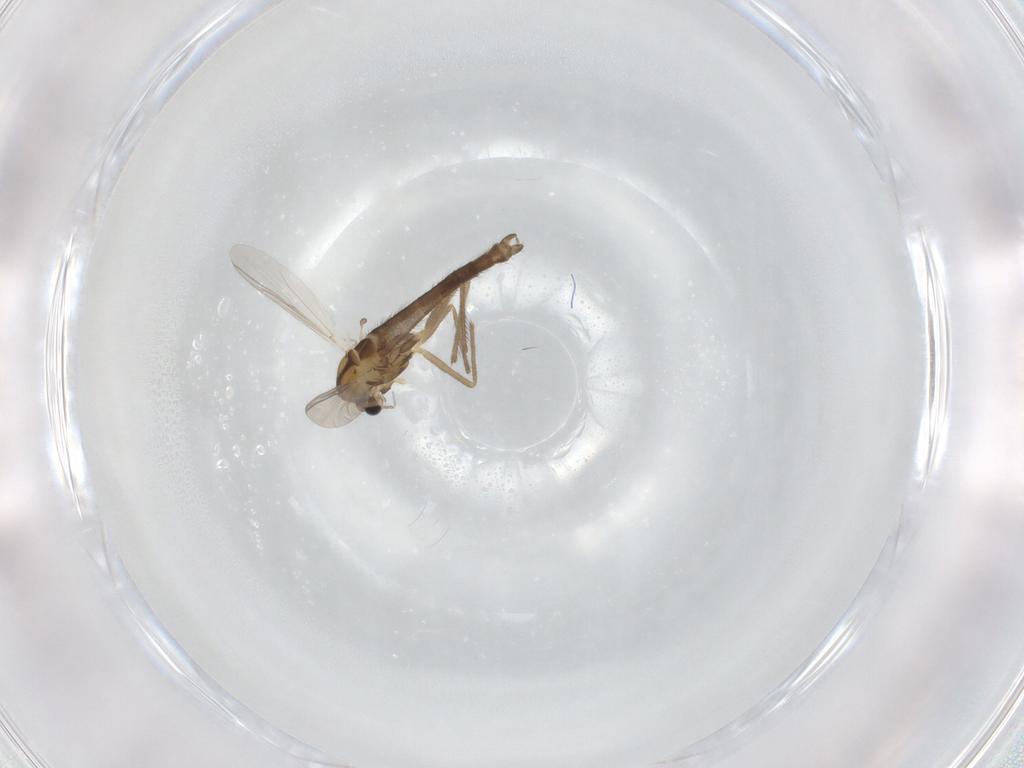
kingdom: Animalia
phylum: Arthropoda
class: Insecta
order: Diptera
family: Chironomidae
